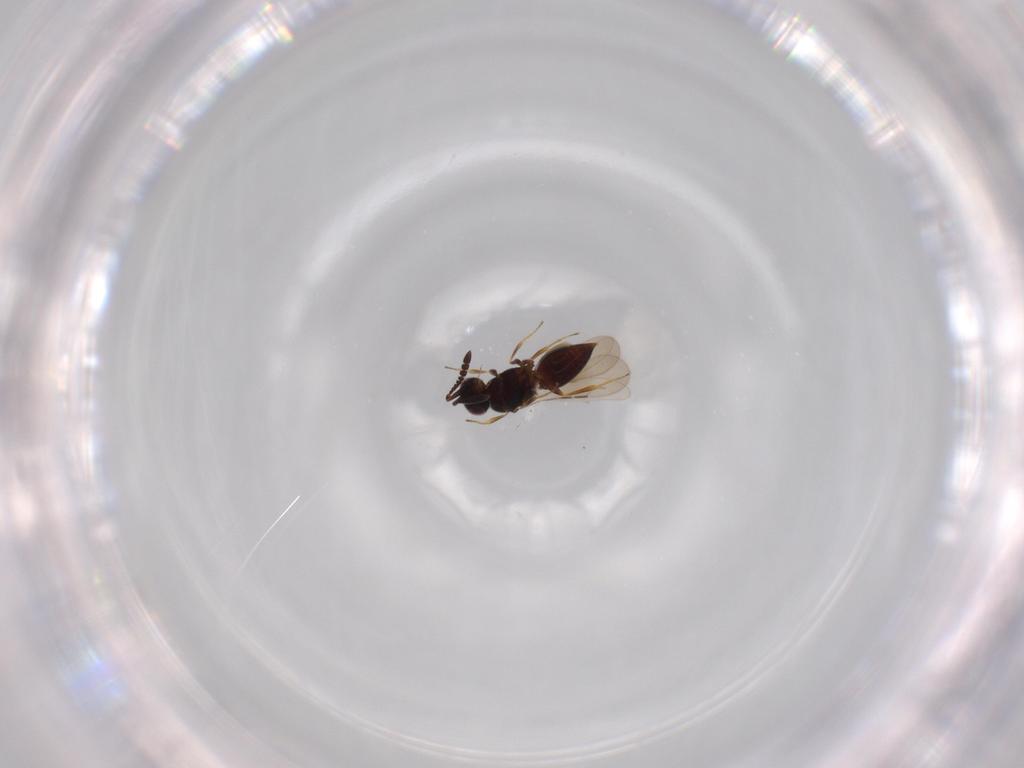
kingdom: Animalia
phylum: Arthropoda
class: Insecta
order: Hymenoptera
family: Ceraphronidae
